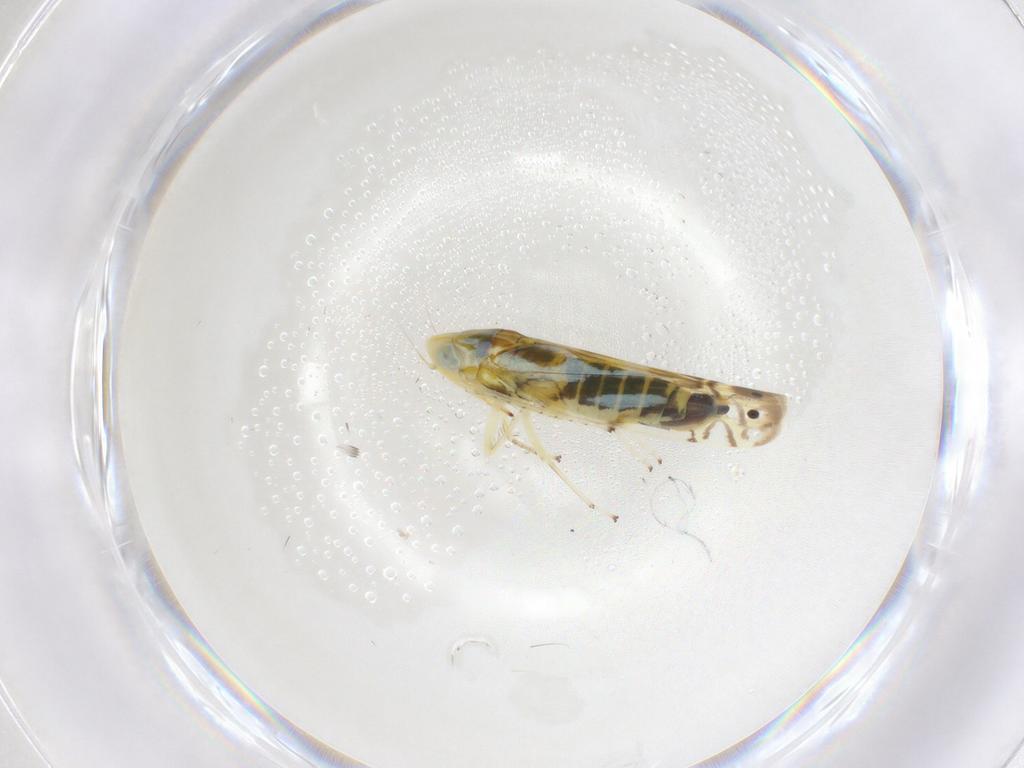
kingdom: Animalia
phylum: Arthropoda
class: Insecta
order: Hemiptera
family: Cicadellidae
